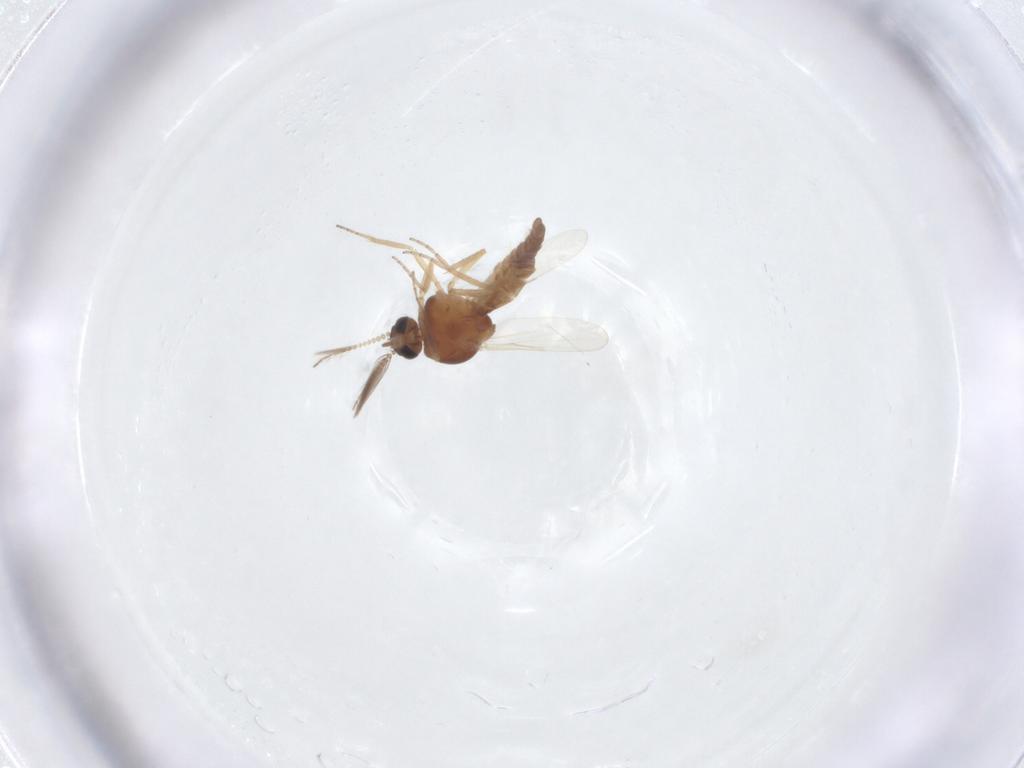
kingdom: Animalia
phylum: Arthropoda
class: Insecta
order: Diptera
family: Ceratopogonidae
